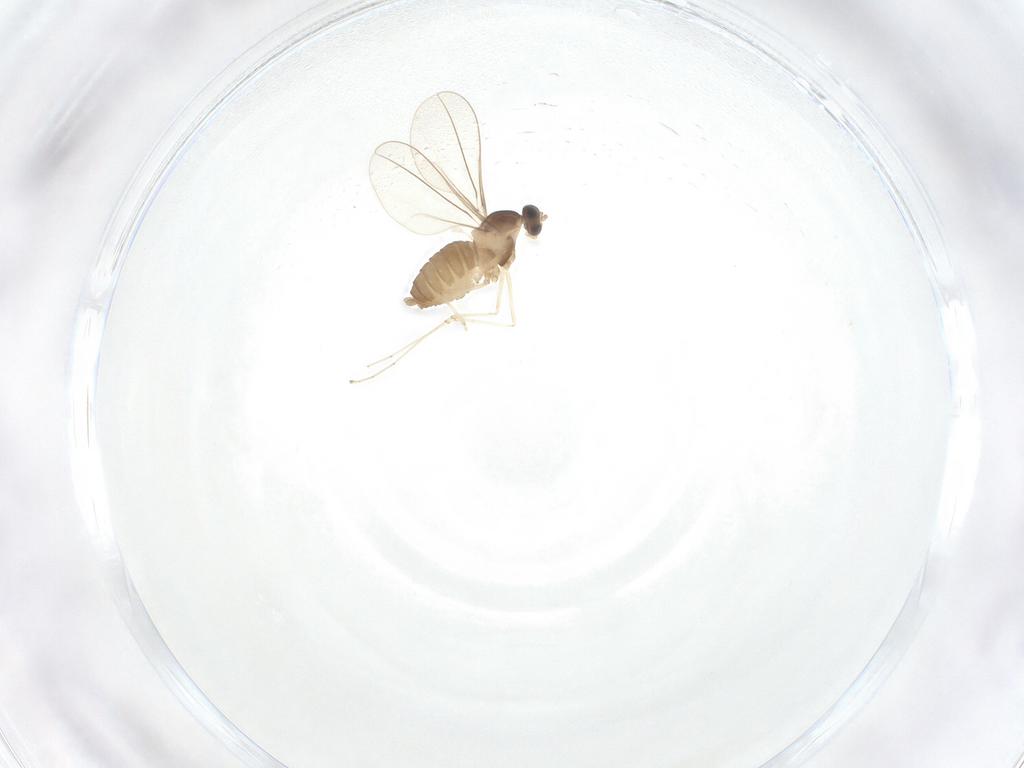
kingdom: Animalia
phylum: Arthropoda
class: Insecta
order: Diptera
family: Cecidomyiidae
